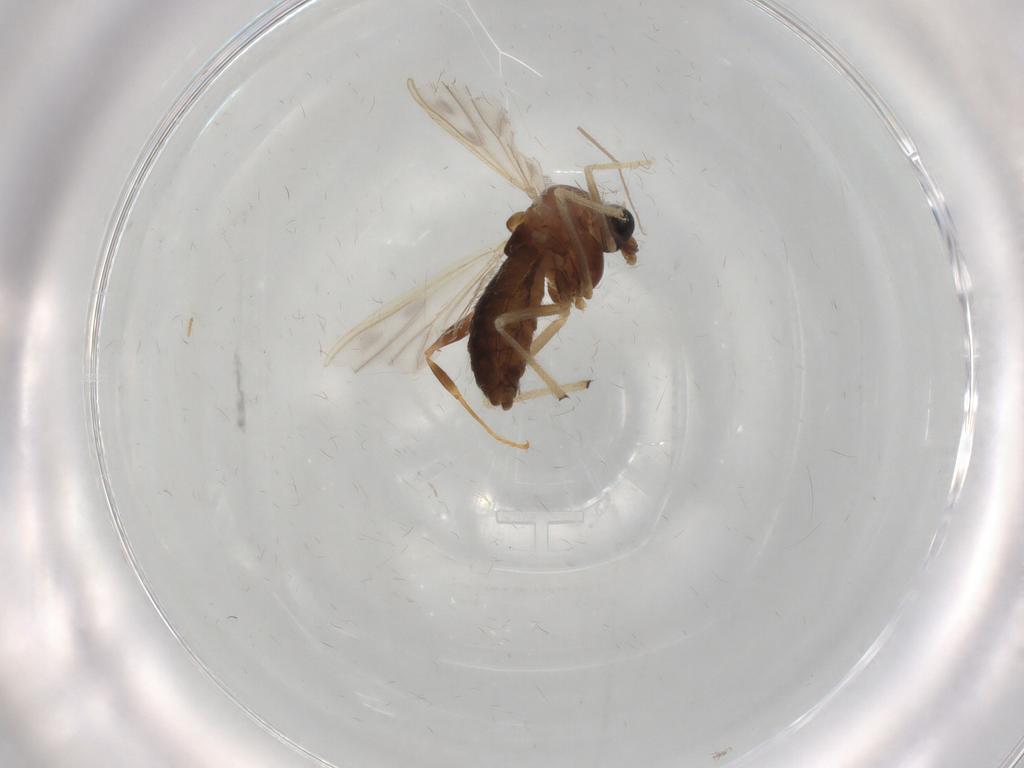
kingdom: Animalia
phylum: Arthropoda
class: Insecta
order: Diptera
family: Chironomidae
